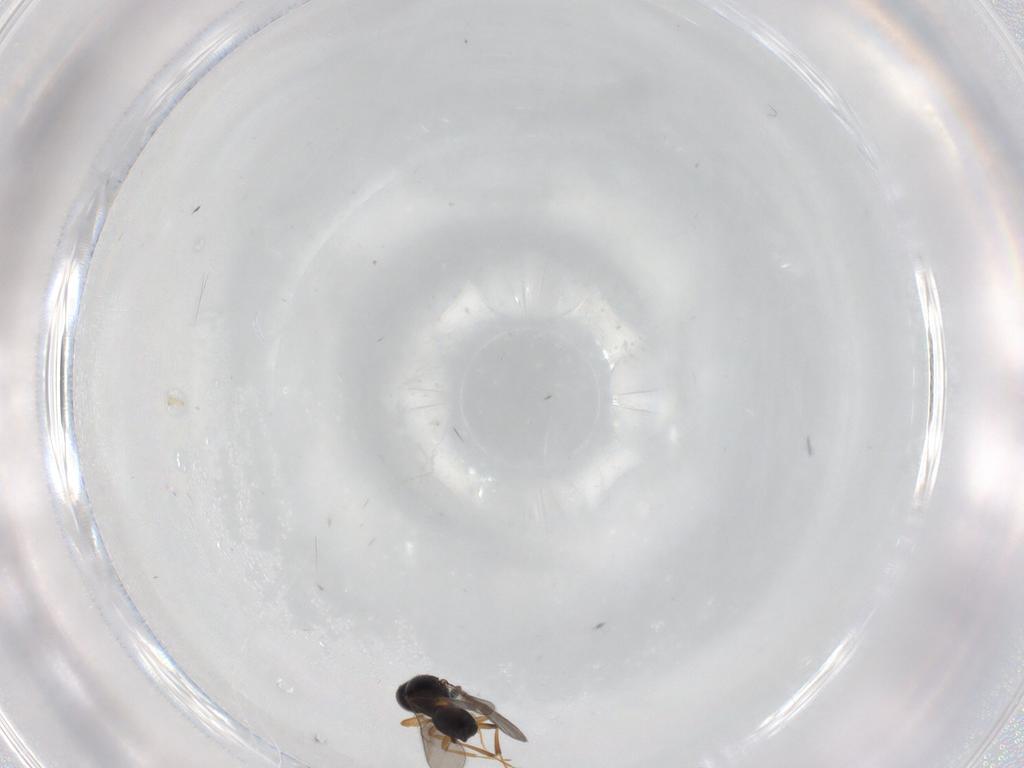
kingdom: Animalia
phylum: Arthropoda
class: Insecta
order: Hymenoptera
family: Scelionidae
